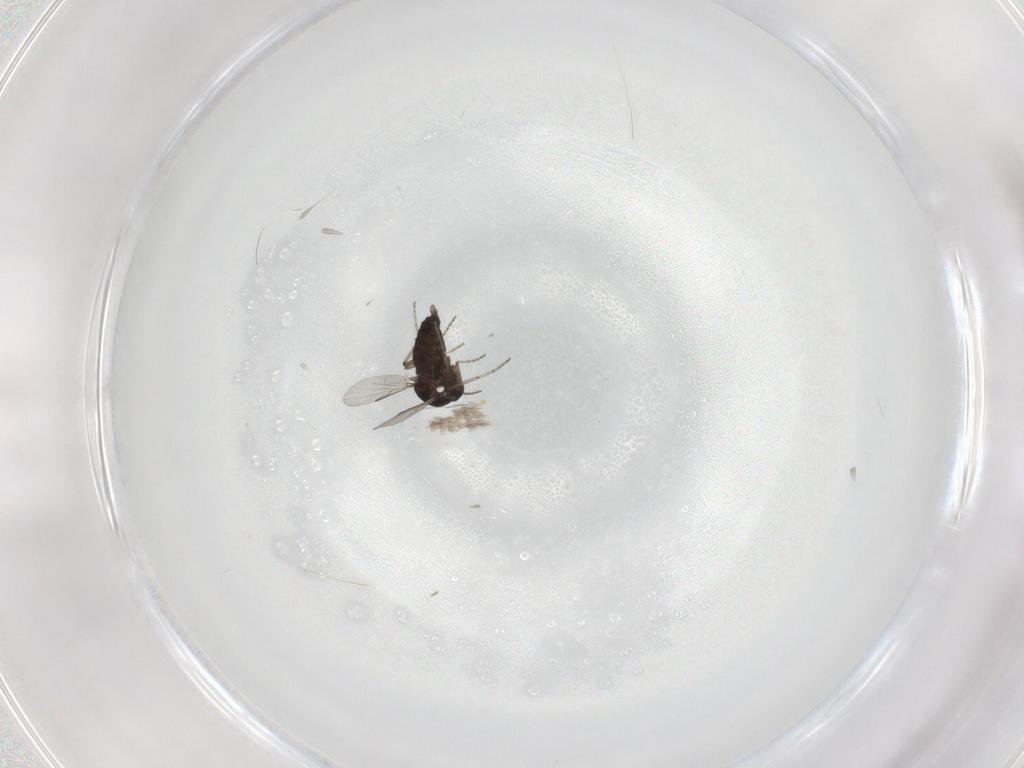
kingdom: Animalia
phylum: Arthropoda
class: Insecta
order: Diptera
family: Ceratopogonidae
